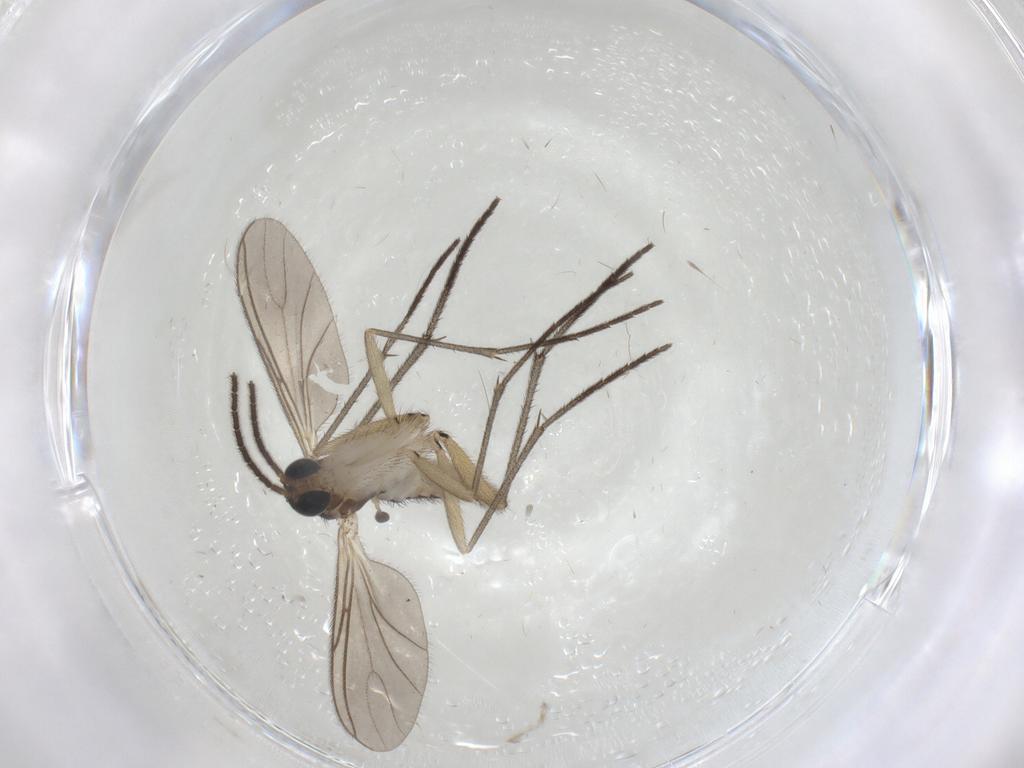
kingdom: Animalia
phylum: Arthropoda
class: Insecta
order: Diptera
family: Sciaridae
